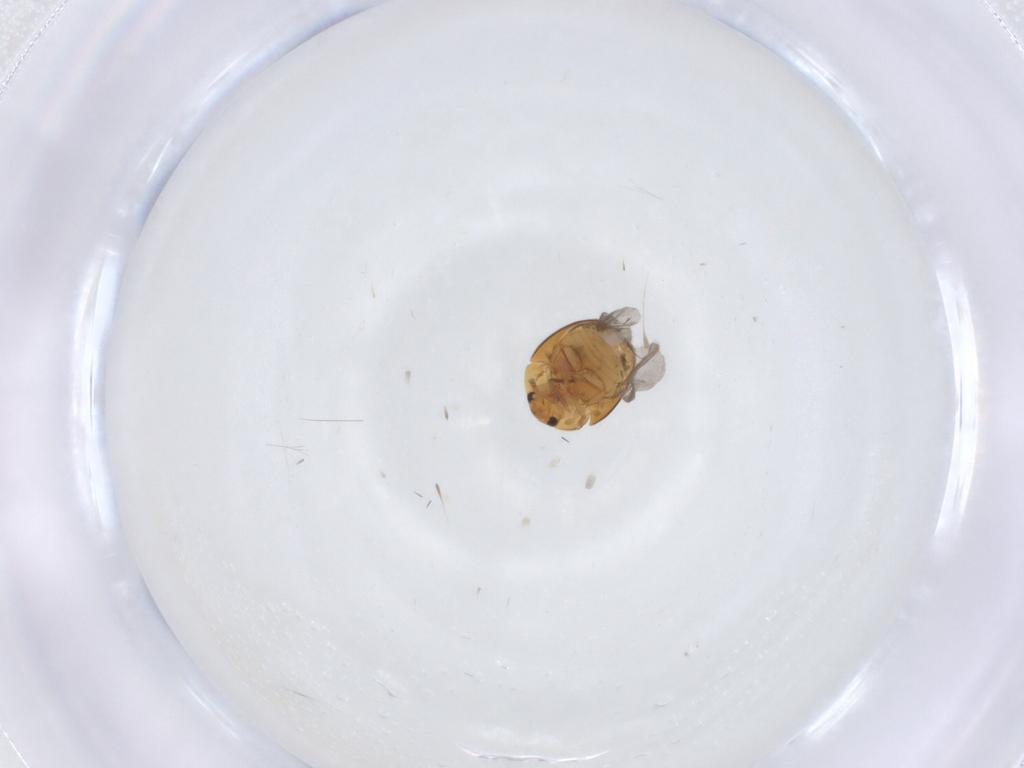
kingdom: Animalia
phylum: Arthropoda
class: Insecta
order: Coleoptera
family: Phalacridae
